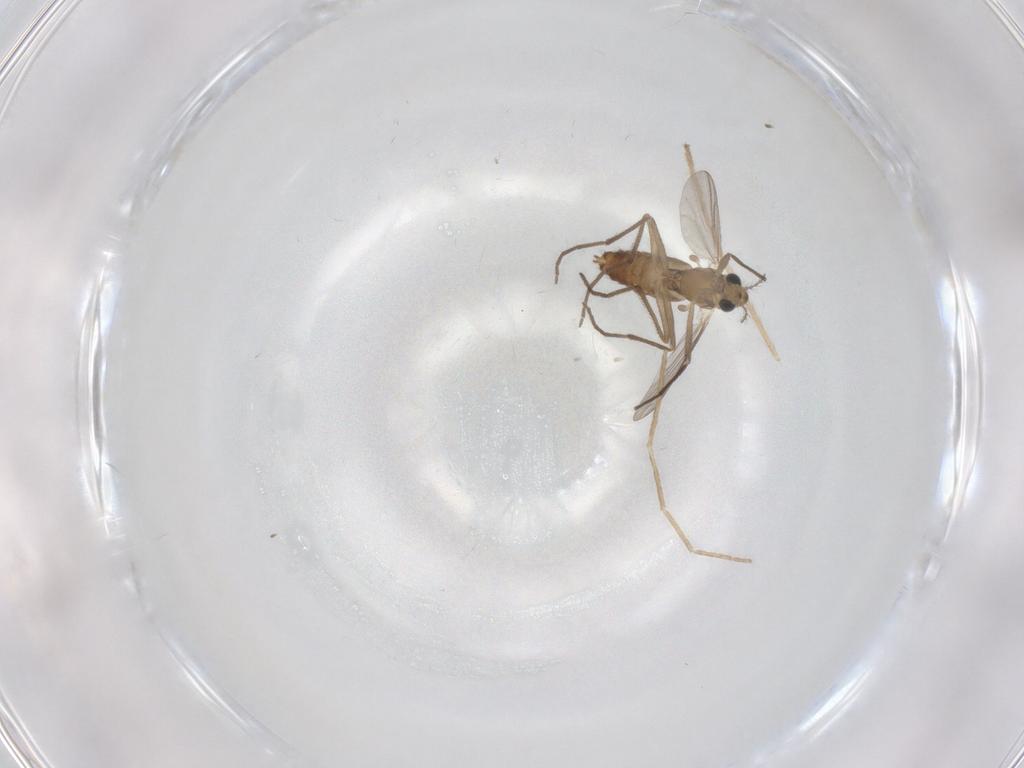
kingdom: Animalia
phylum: Arthropoda
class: Insecta
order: Diptera
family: Chironomidae
